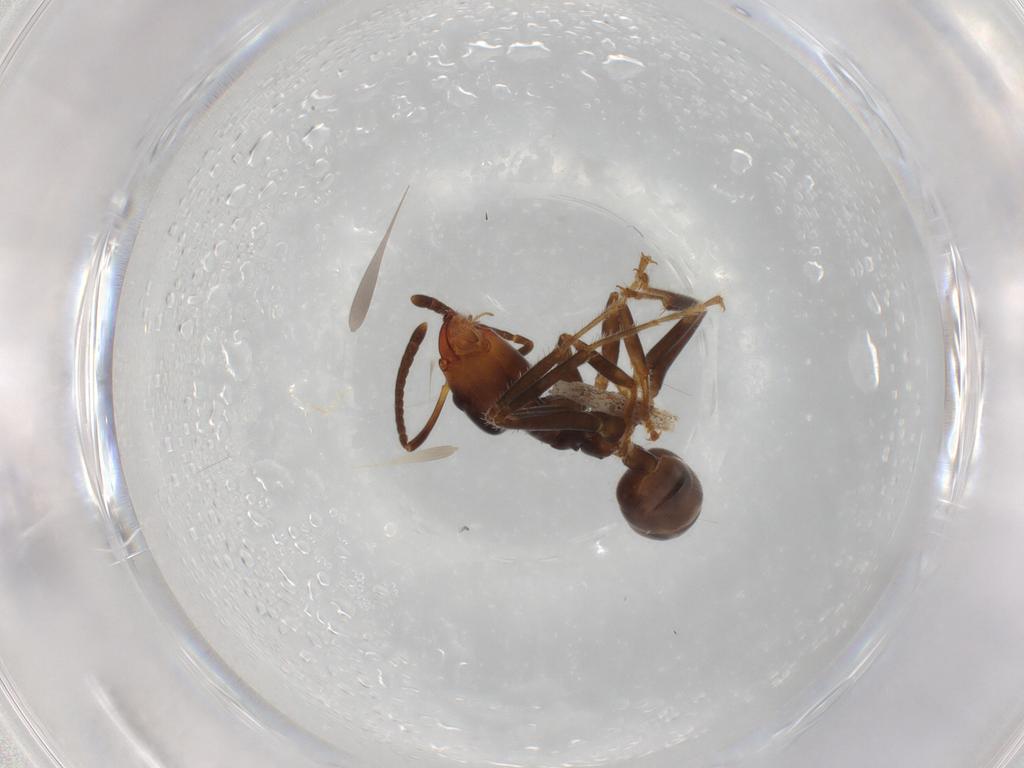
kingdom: Animalia
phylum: Arthropoda
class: Insecta
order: Hymenoptera
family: Formicidae
